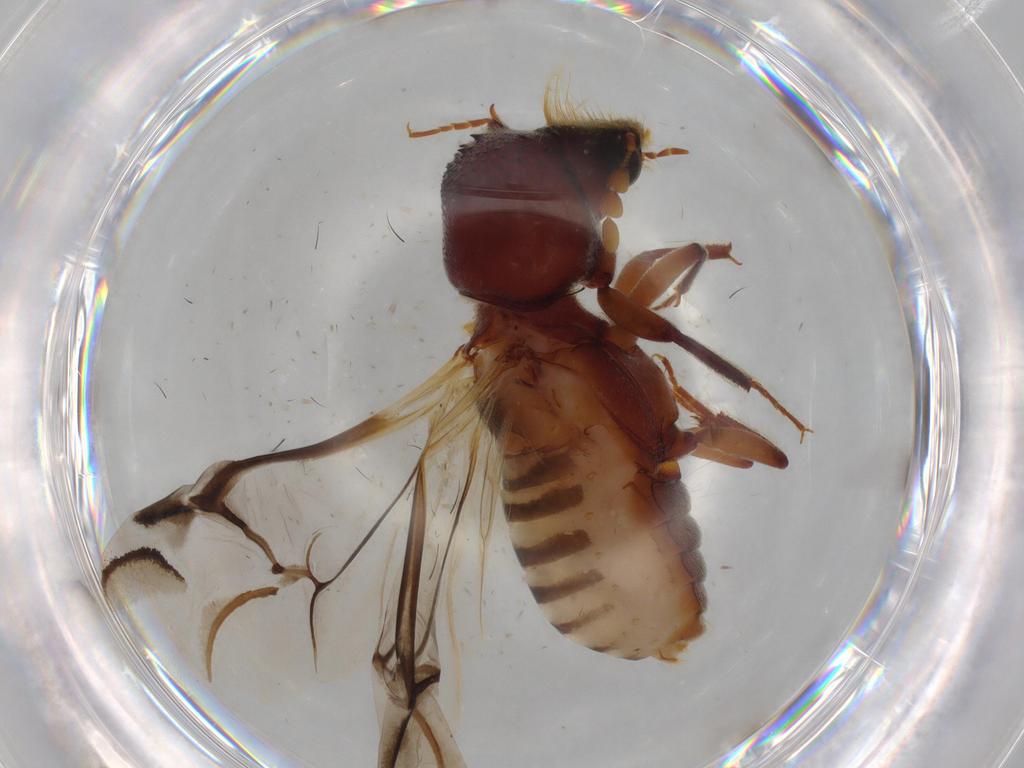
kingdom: Animalia
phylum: Arthropoda
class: Insecta
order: Coleoptera
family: Bostrichidae
